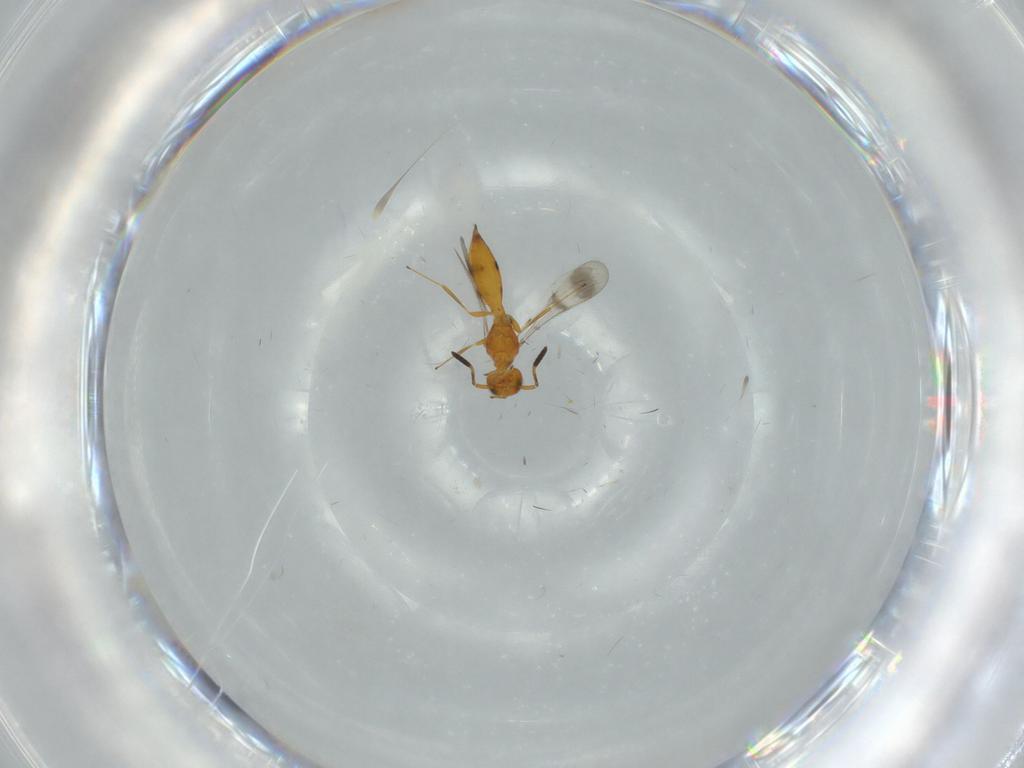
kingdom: Animalia
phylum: Arthropoda
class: Insecta
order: Hymenoptera
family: Scelionidae
